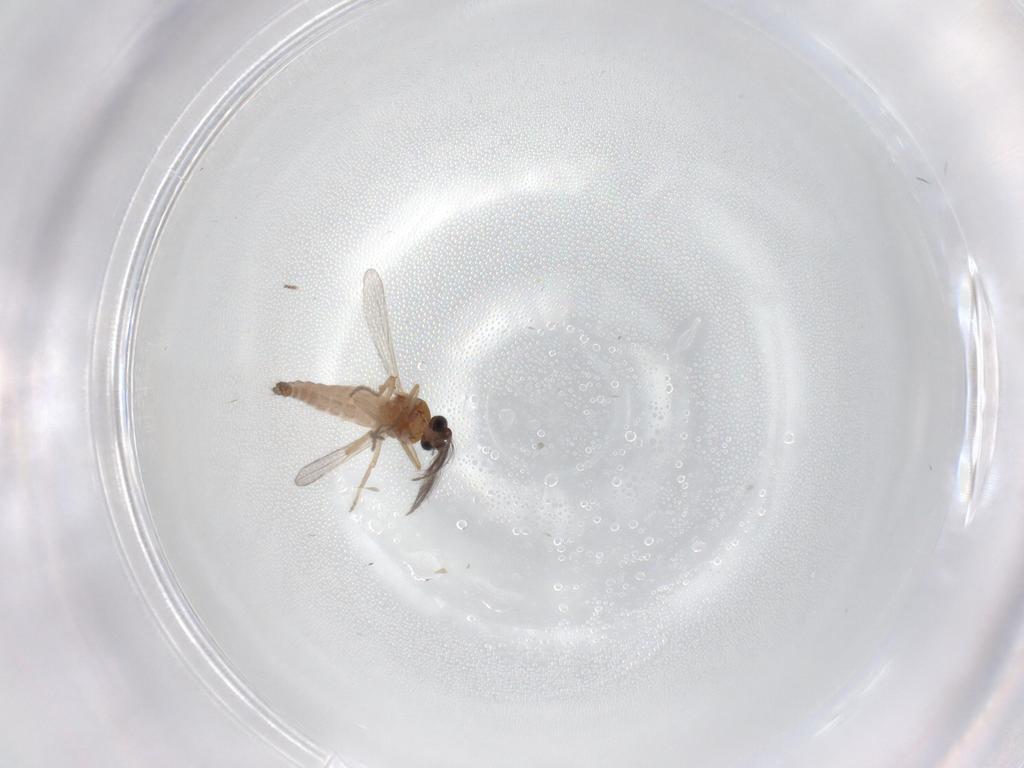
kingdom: Animalia
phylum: Arthropoda
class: Insecta
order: Diptera
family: Ceratopogonidae
